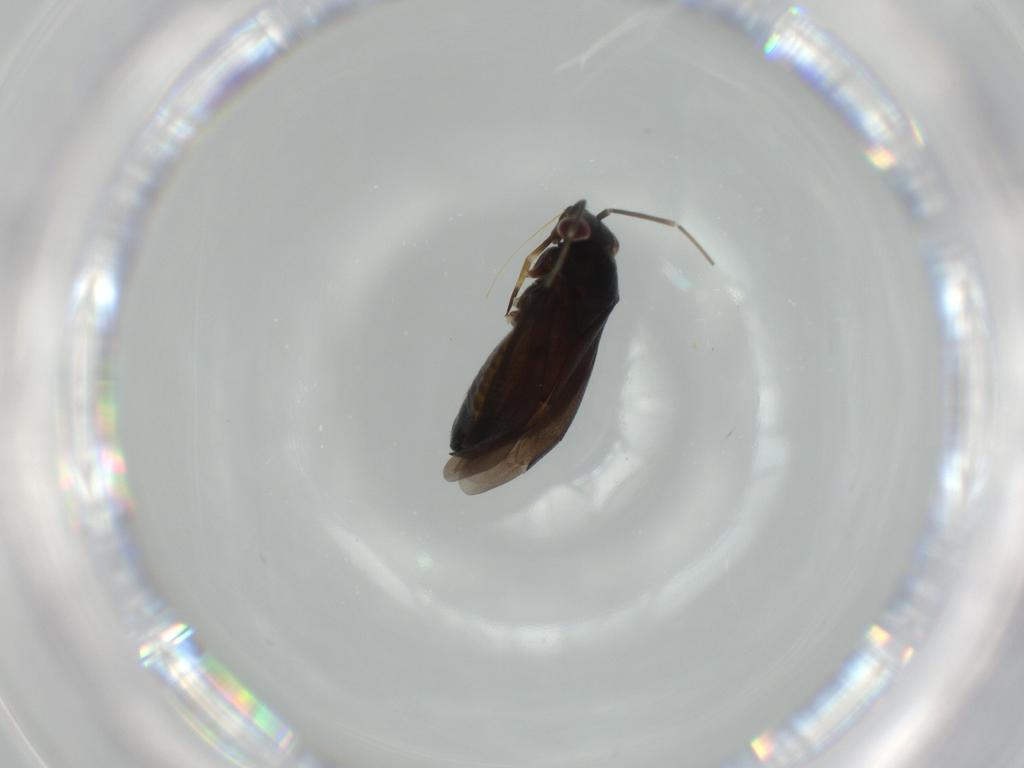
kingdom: Animalia
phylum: Arthropoda
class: Insecta
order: Hemiptera
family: Miridae
